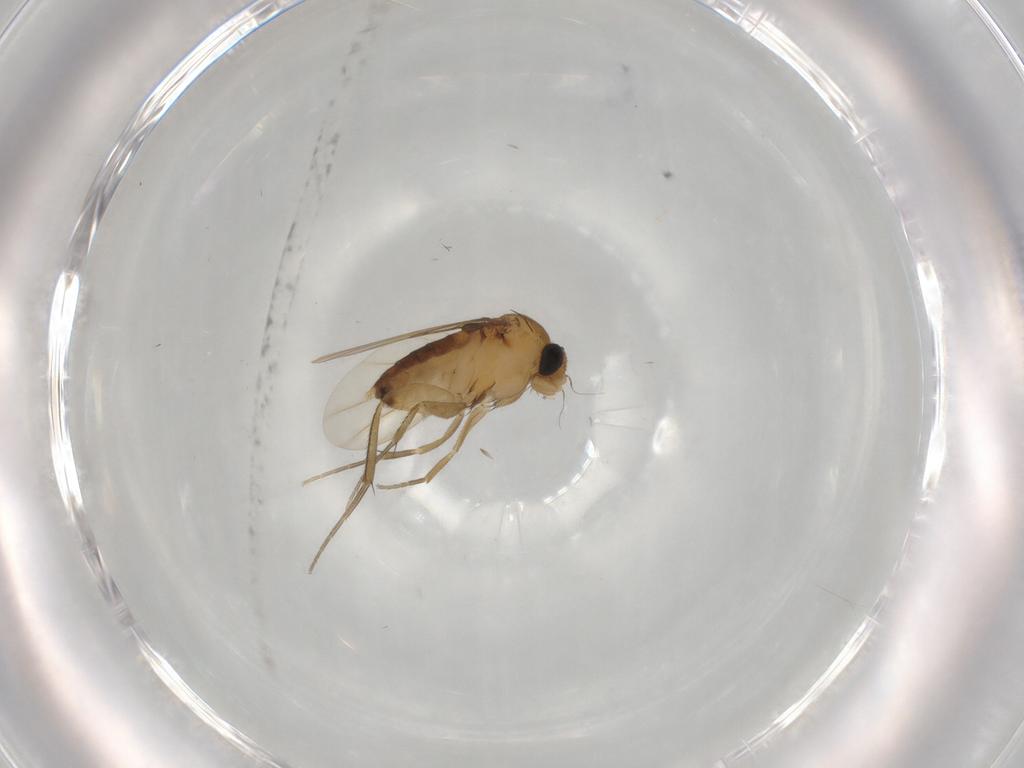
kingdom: Animalia
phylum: Arthropoda
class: Insecta
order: Diptera
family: Phoridae
